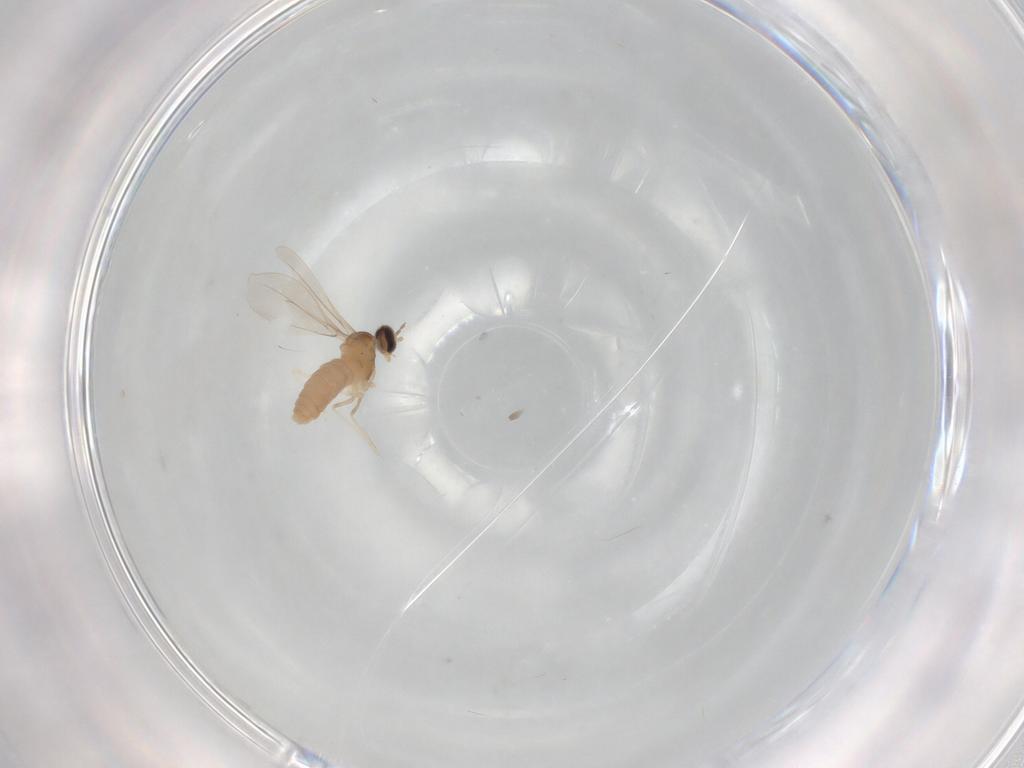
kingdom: Animalia
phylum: Arthropoda
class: Insecta
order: Diptera
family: Cecidomyiidae
